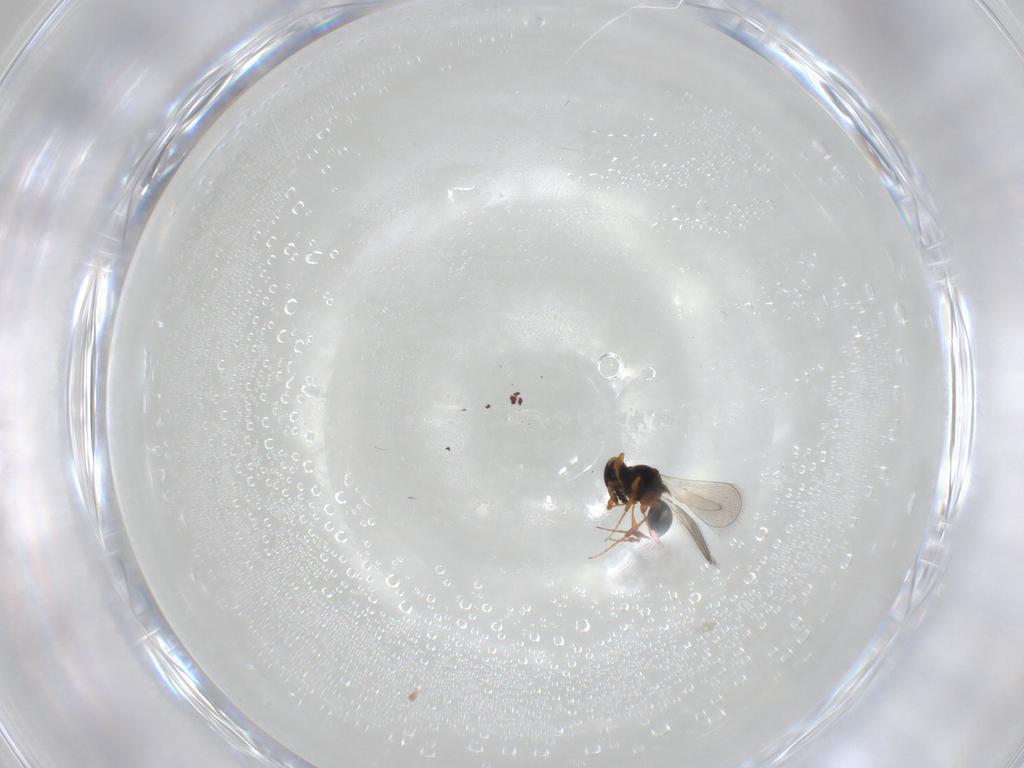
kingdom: Animalia
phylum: Arthropoda
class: Insecta
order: Hymenoptera
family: Platygastridae
